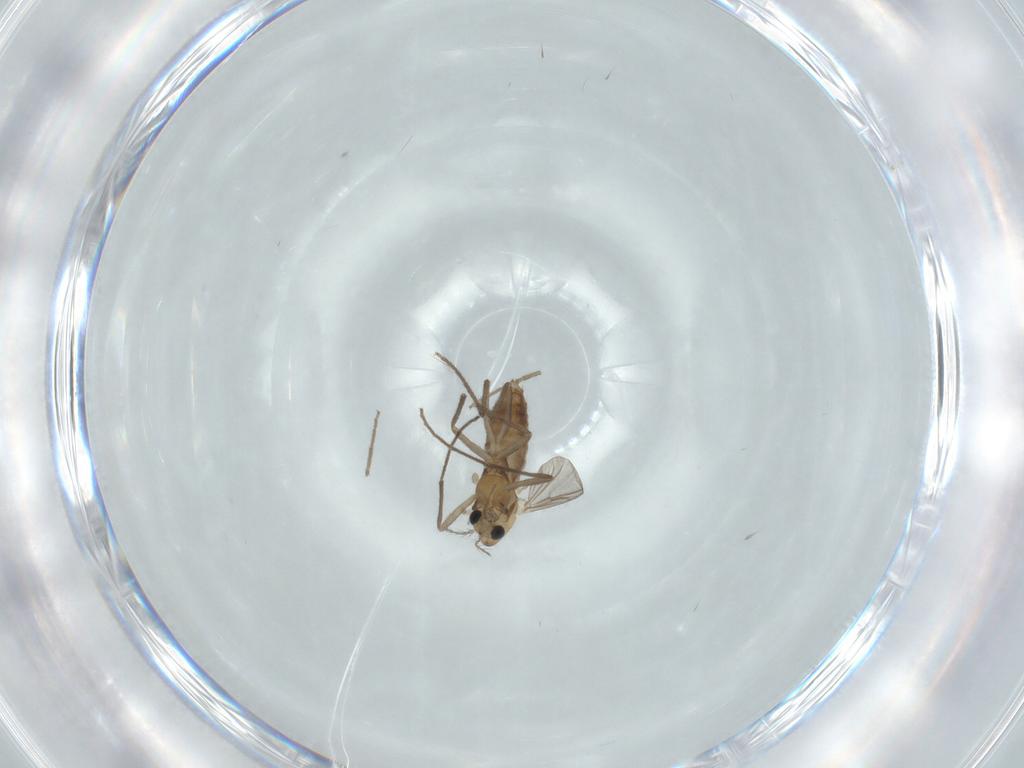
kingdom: Animalia
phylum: Arthropoda
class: Insecta
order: Diptera
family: Chironomidae
